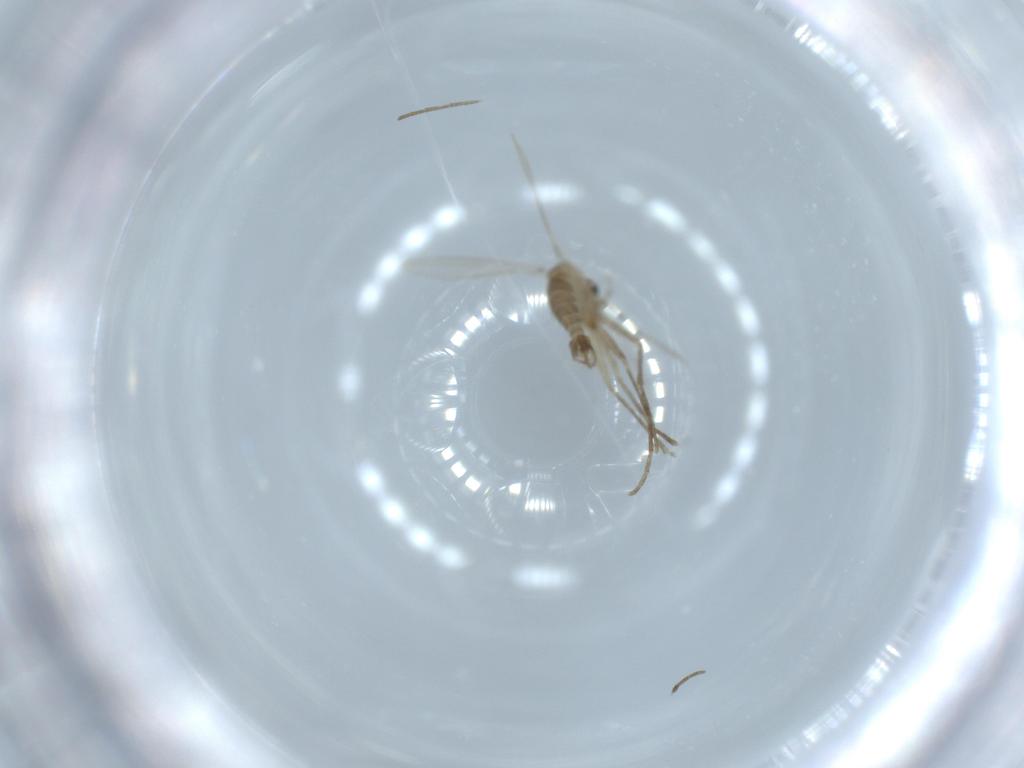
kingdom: Animalia
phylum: Arthropoda
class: Insecta
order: Diptera
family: Psychodidae
